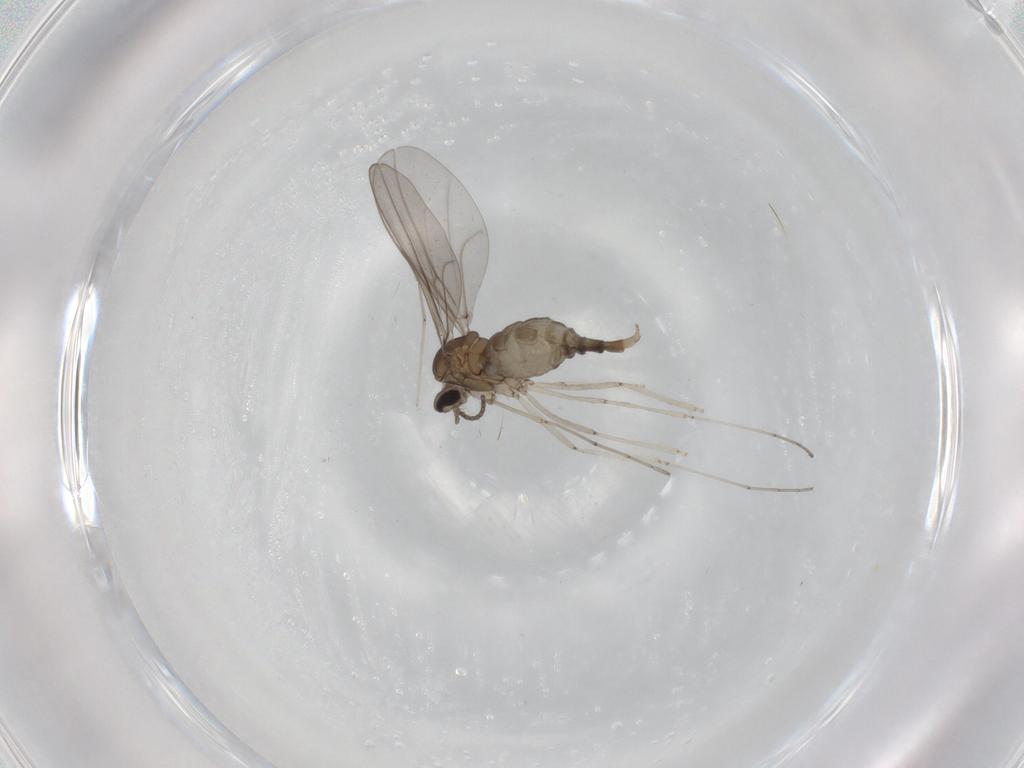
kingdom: Animalia
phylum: Arthropoda
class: Insecta
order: Diptera
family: Cecidomyiidae
